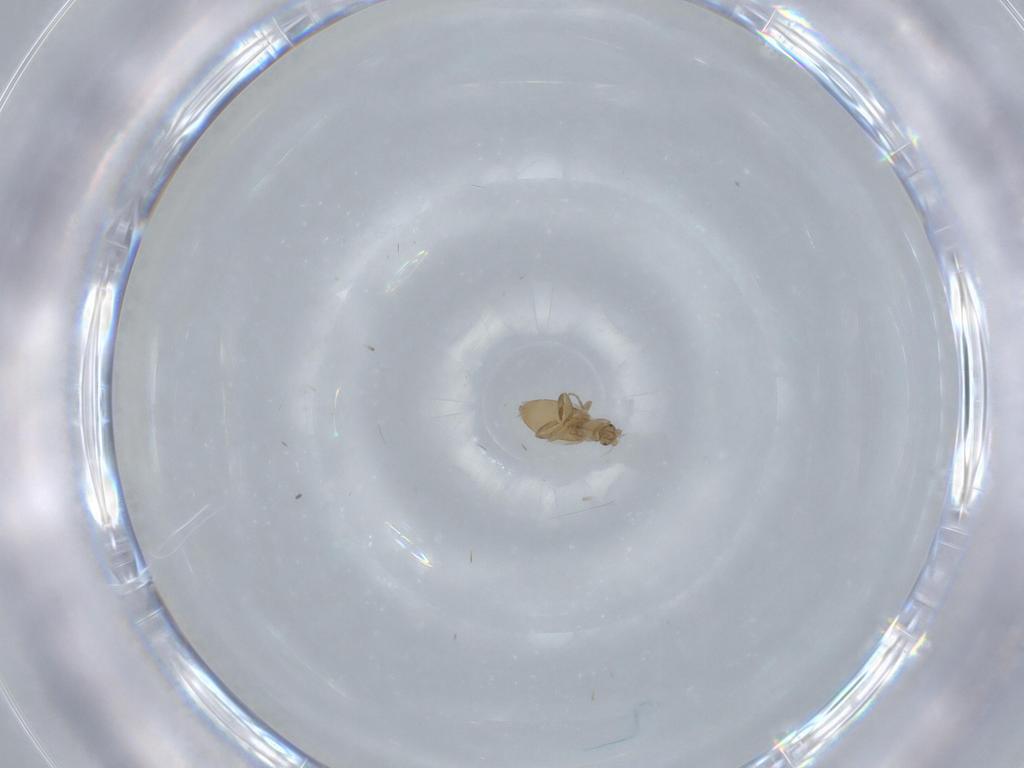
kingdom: Animalia
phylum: Arthropoda
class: Insecta
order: Diptera
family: Phoridae
